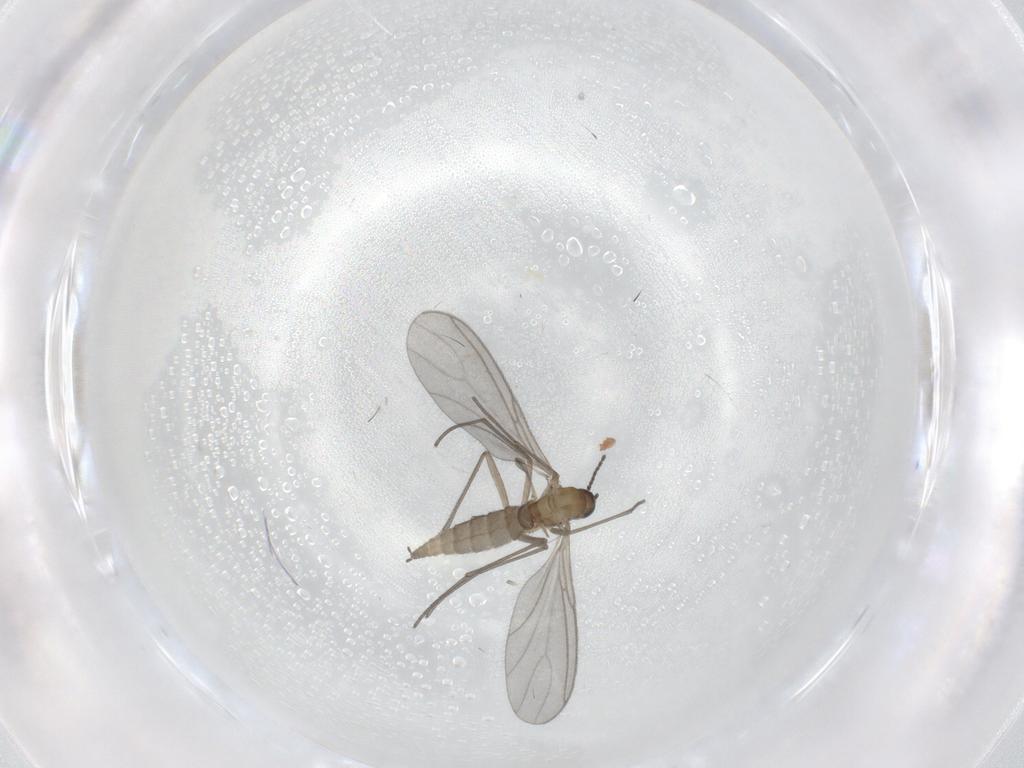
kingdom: Animalia
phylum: Arthropoda
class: Insecta
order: Diptera
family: Sciaridae
